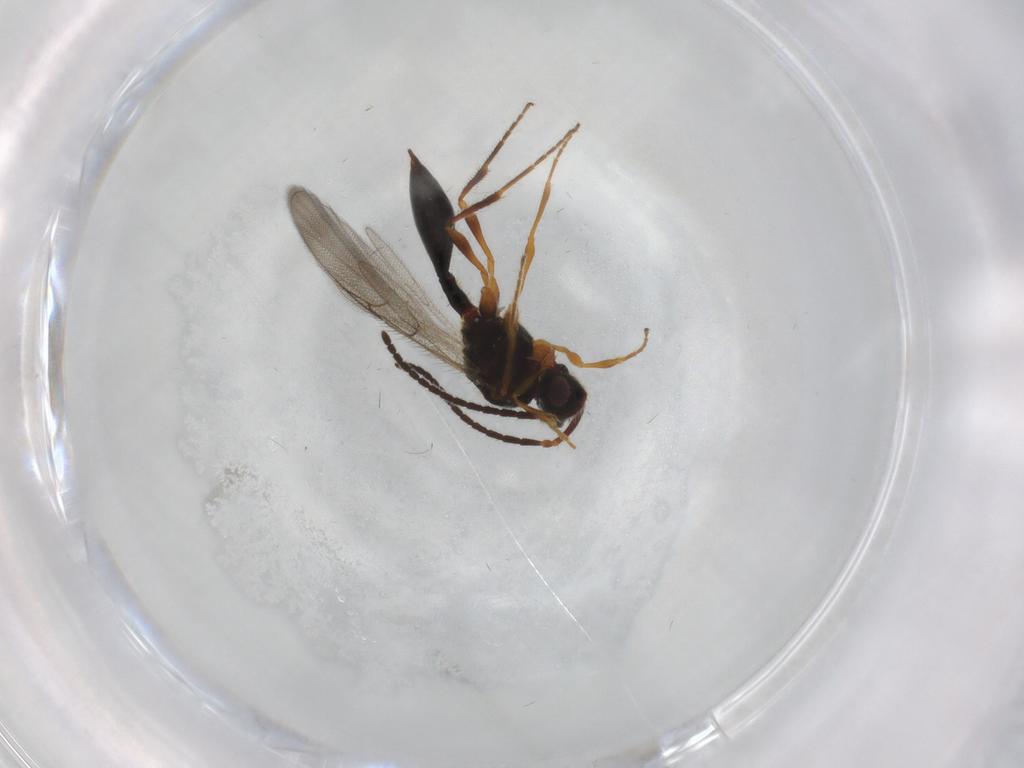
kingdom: Animalia
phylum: Arthropoda
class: Insecta
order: Hymenoptera
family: Diapriidae
